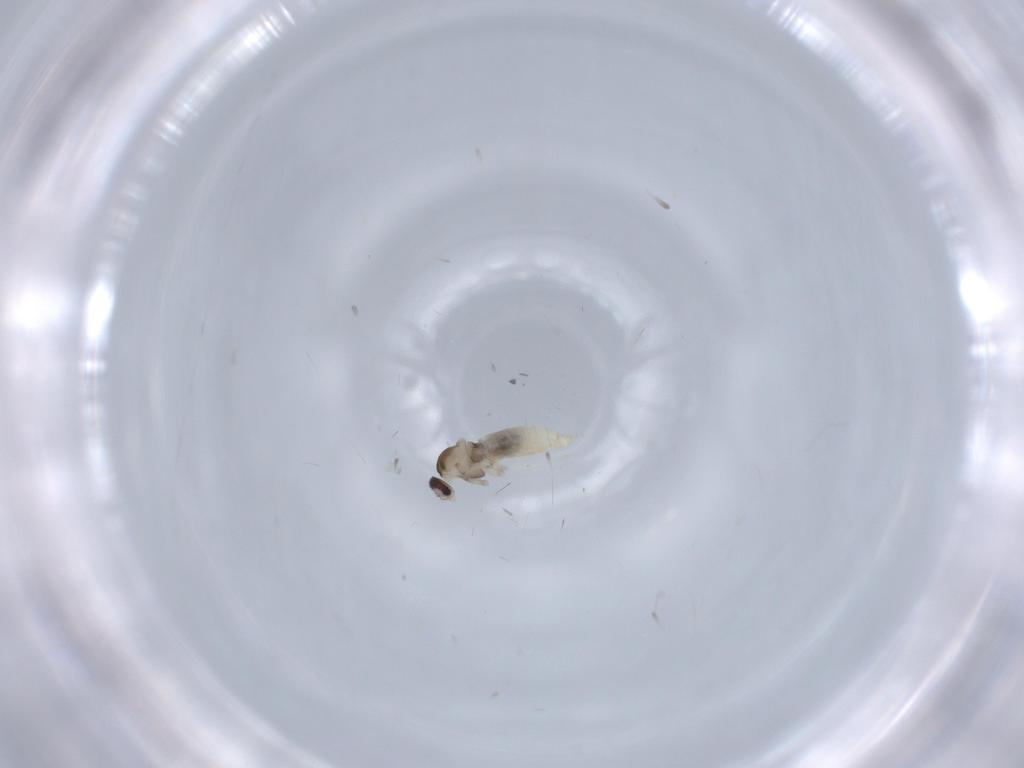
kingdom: Animalia
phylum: Arthropoda
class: Insecta
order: Diptera
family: Cecidomyiidae
